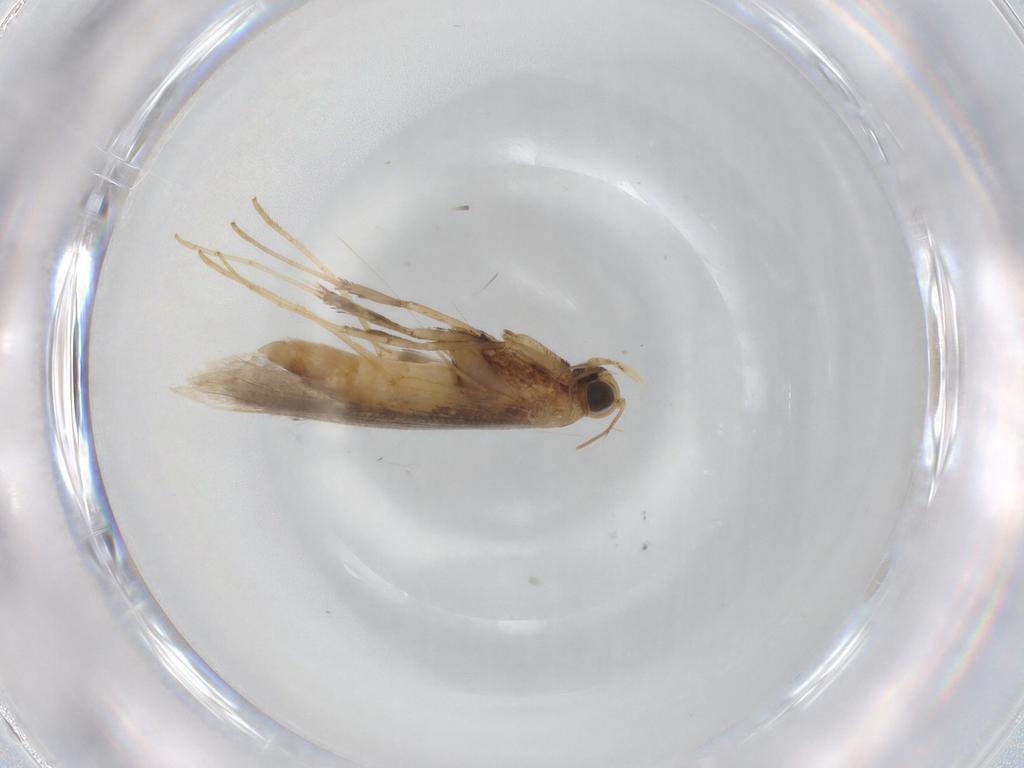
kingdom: Animalia
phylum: Arthropoda
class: Insecta
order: Lepidoptera
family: Gracillariidae
